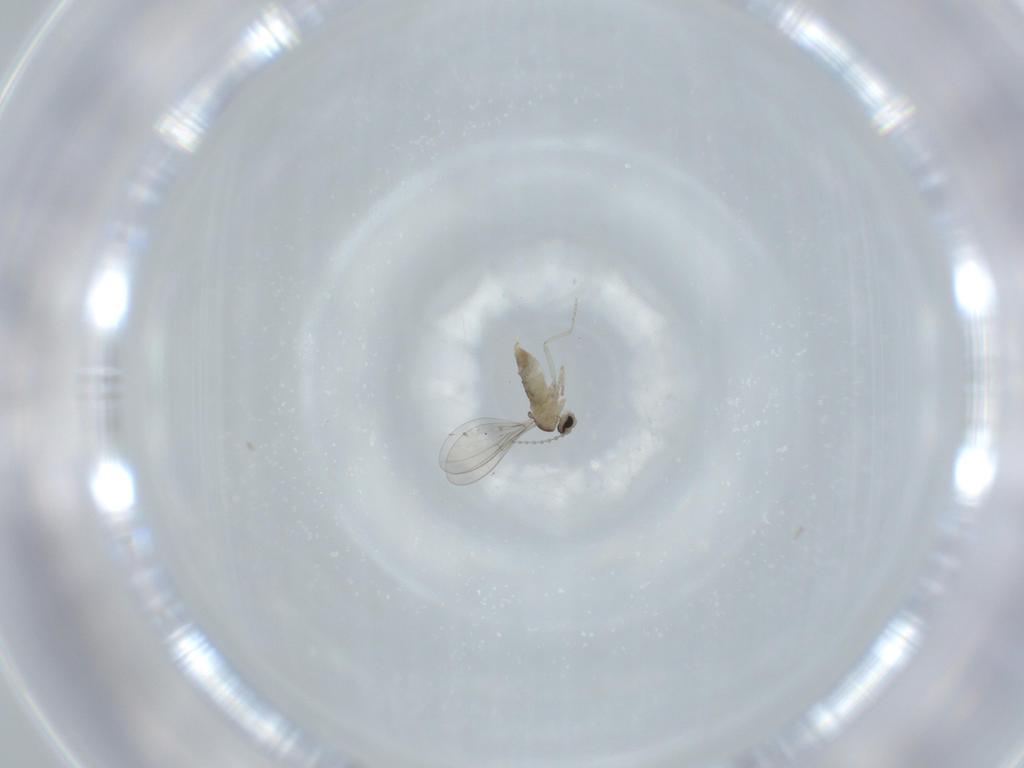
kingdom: Animalia
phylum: Arthropoda
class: Insecta
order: Diptera
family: Cecidomyiidae
